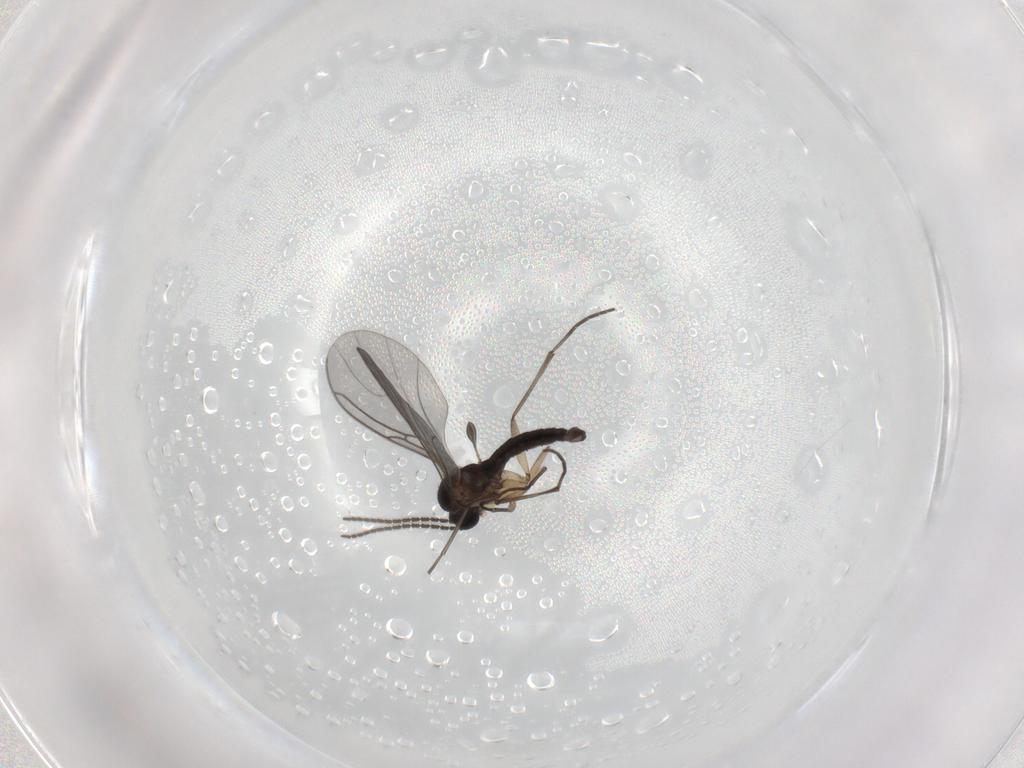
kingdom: Animalia
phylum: Arthropoda
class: Insecta
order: Diptera
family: Sciaridae
